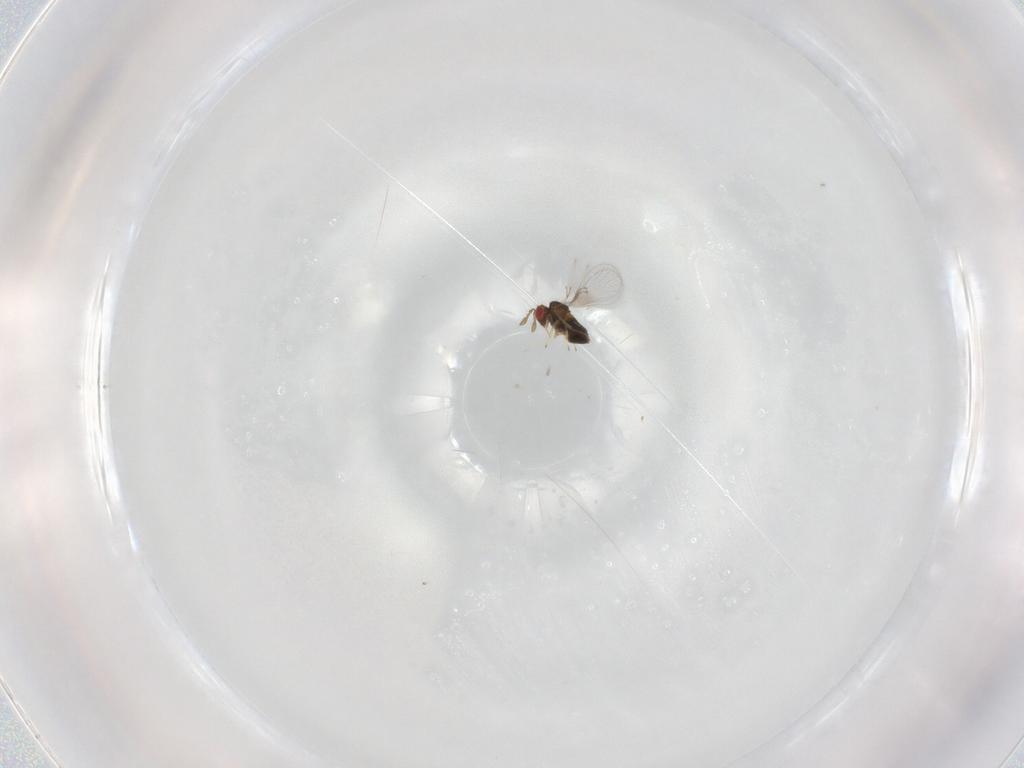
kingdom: Animalia
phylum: Arthropoda
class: Insecta
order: Hymenoptera
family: Trichogrammatidae
